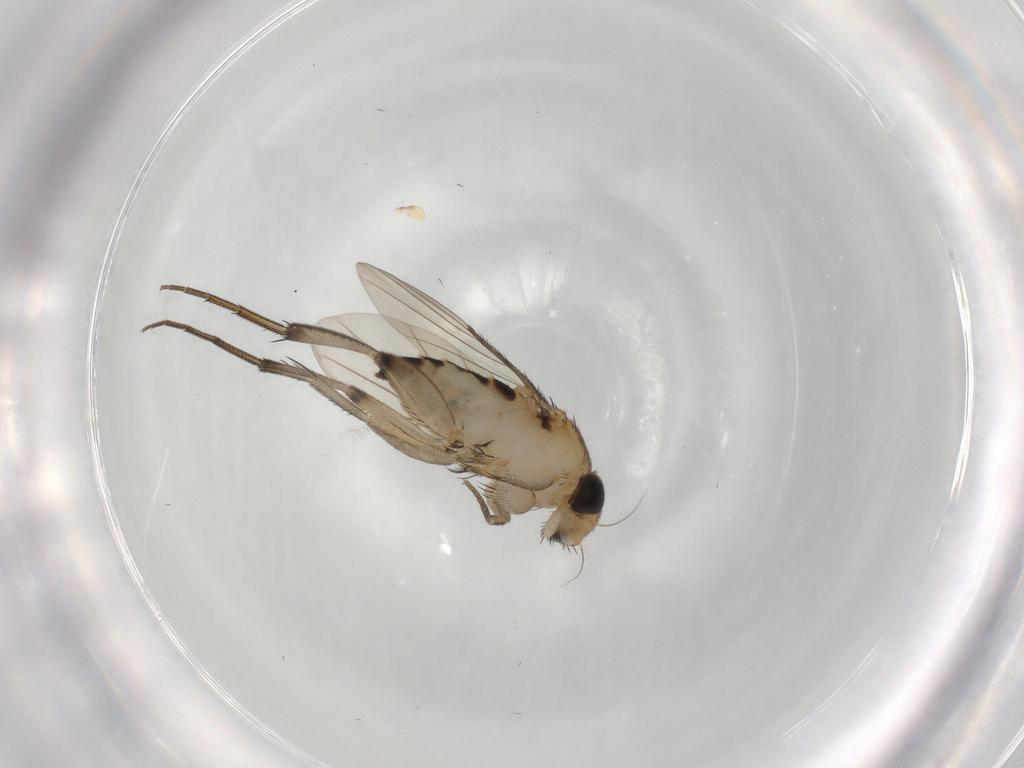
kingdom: Animalia
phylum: Arthropoda
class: Insecta
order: Diptera
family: Phoridae
